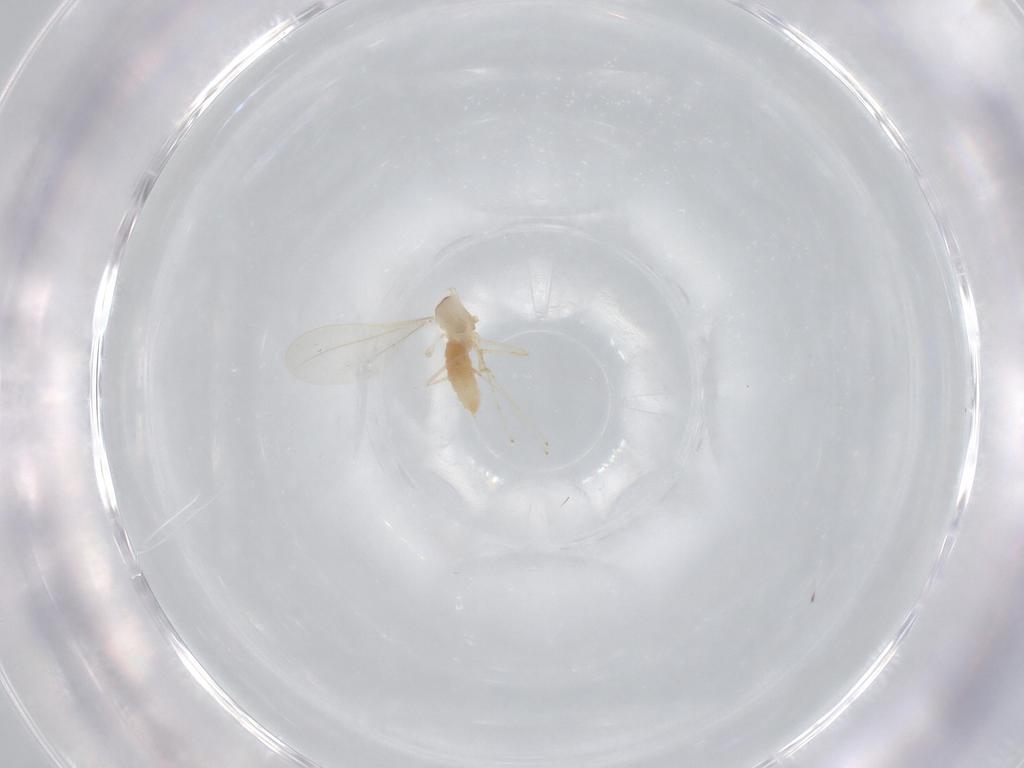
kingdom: Animalia
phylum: Arthropoda
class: Insecta
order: Diptera
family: Cecidomyiidae
